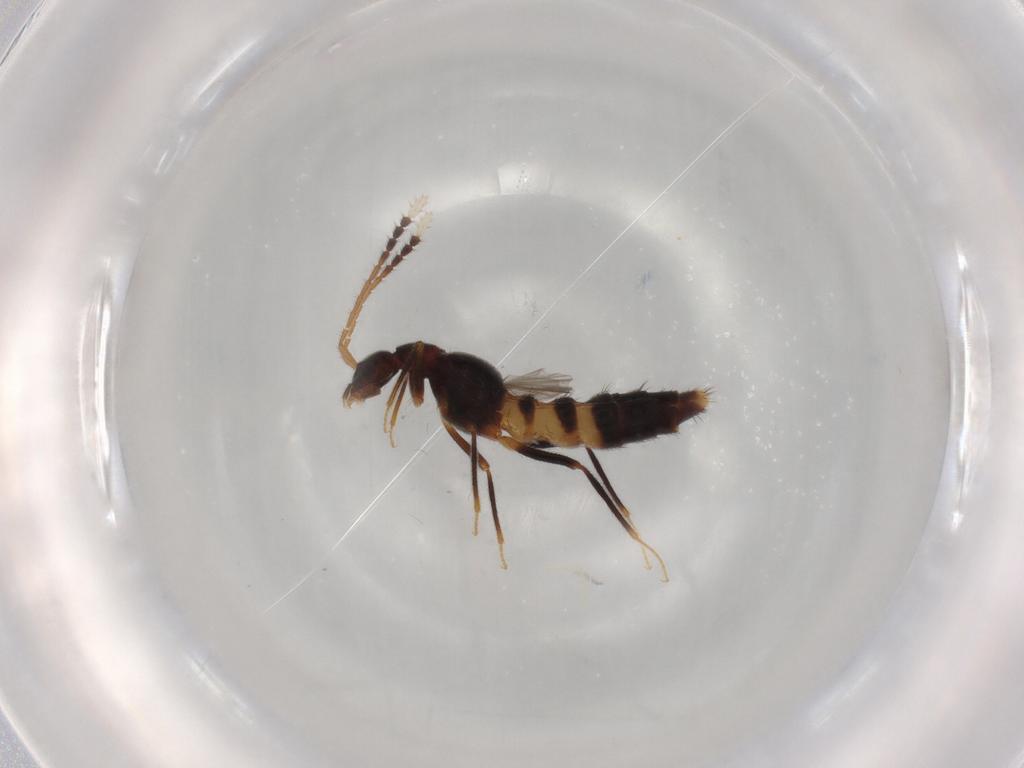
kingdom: Animalia
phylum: Arthropoda
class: Insecta
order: Coleoptera
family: Staphylinidae
